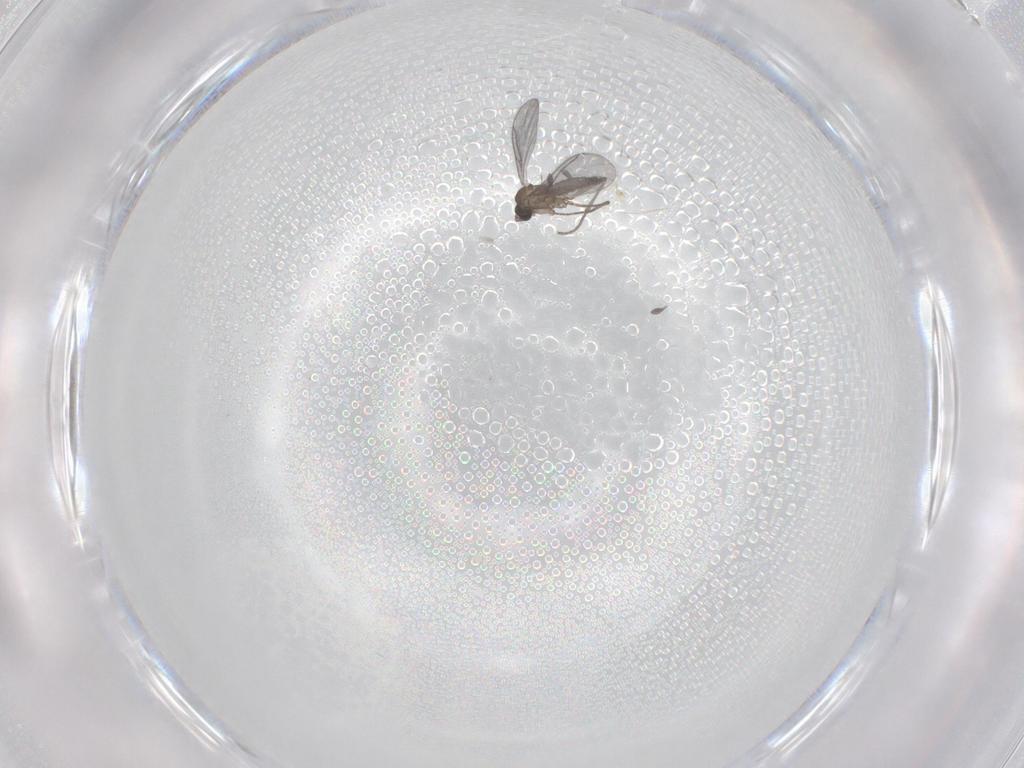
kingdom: Animalia
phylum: Arthropoda
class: Insecta
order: Diptera
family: Sciaridae
